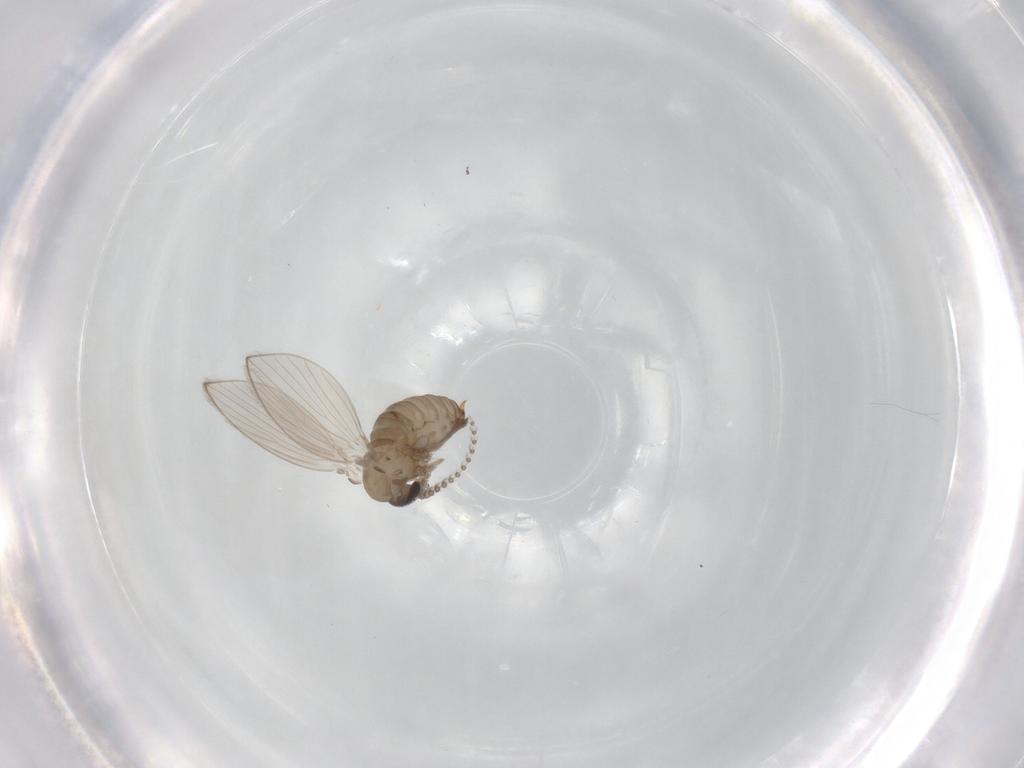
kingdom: Animalia
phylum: Arthropoda
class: Insecta
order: Diptera
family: Psychodidae
